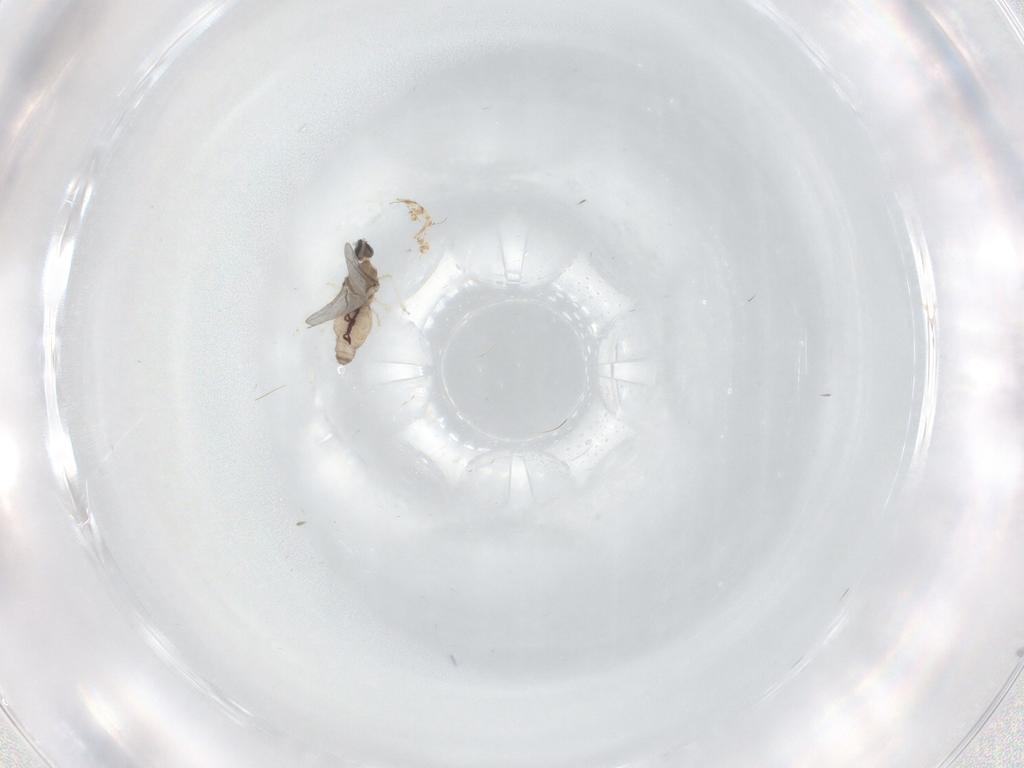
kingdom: Animalia
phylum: Arthropoda
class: Insecta
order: Diptera
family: Cecidomyiidae
